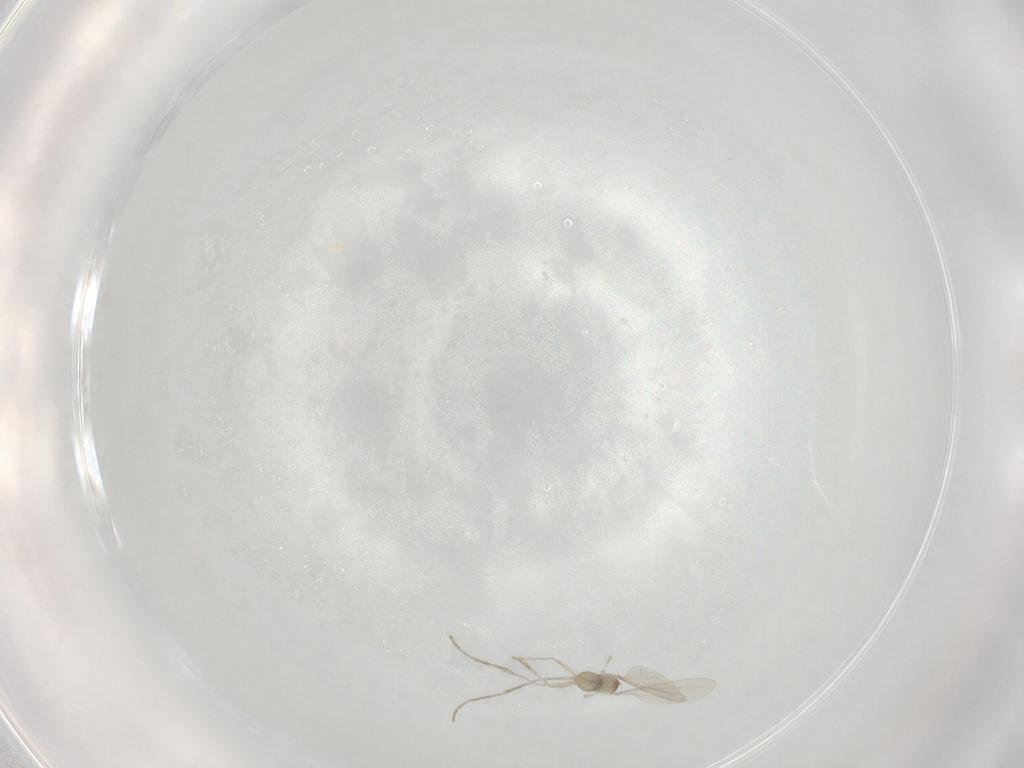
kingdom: Animalia
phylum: Arthropoda
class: Insecta
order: Diptera
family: Cecidomyiidae
